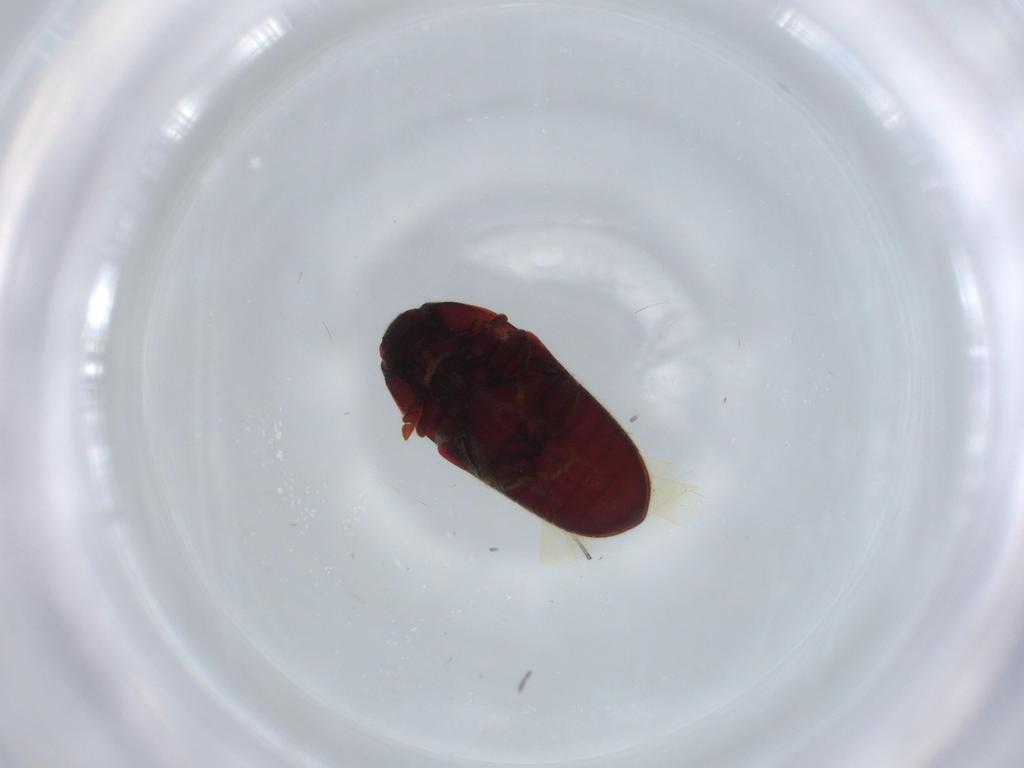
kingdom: Animalia
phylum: Arthropoda
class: Insecta
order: Coleoptera
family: Throscidae
